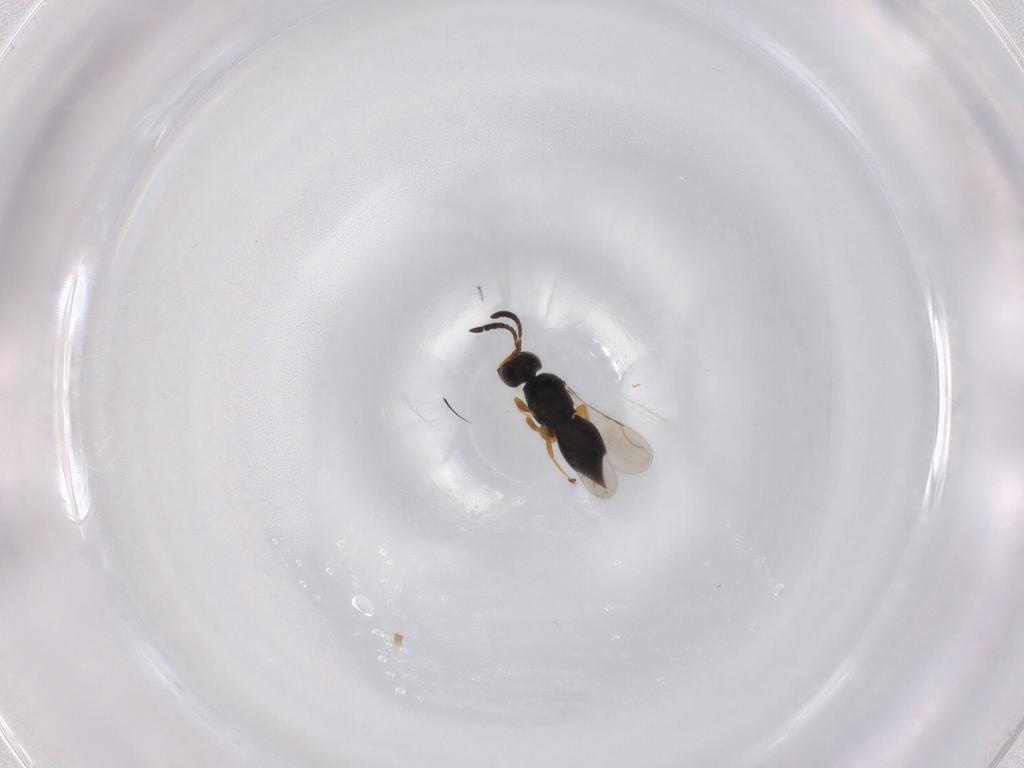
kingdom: Animalia
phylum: Arthropoda
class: Insecta
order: Hymenoptera
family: Ceraphronidae
